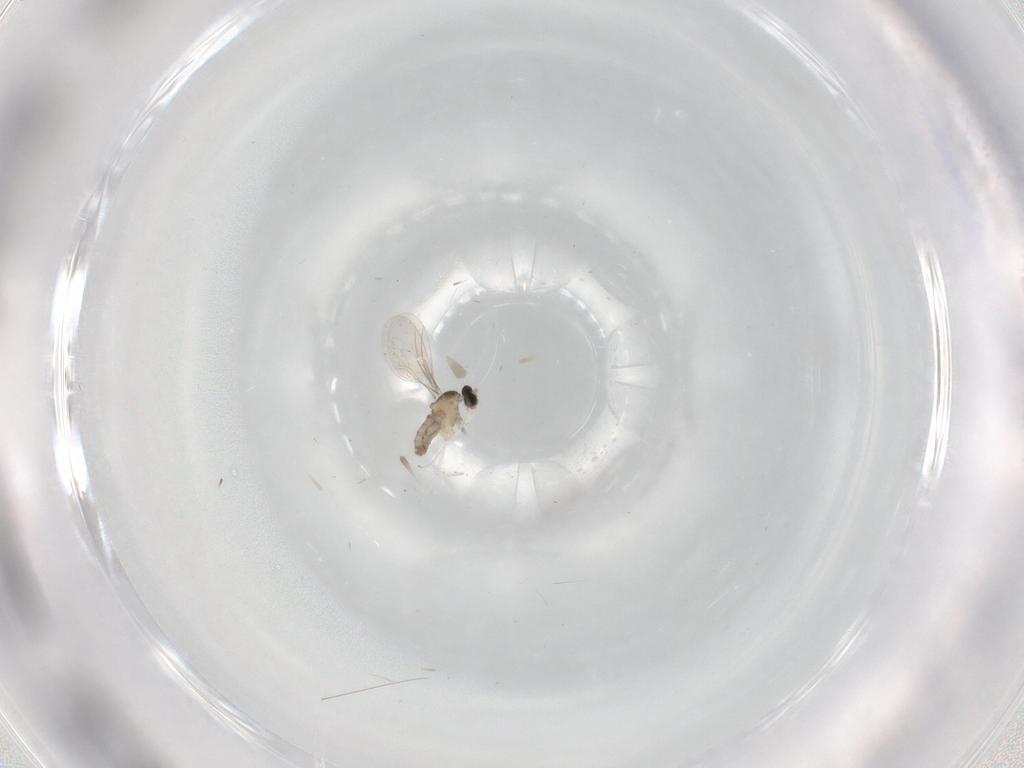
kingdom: Animalia
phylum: Arthropoda
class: Insecta
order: Diptera
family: Cecidomyiidae
